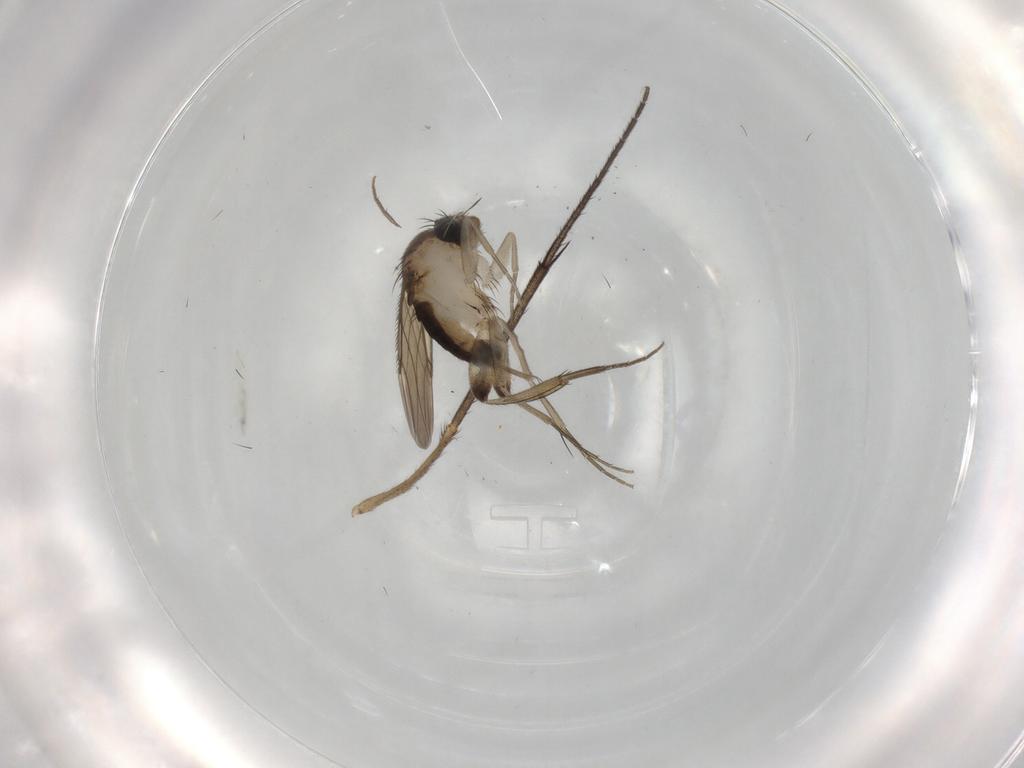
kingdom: Animalia
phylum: Arthropoda
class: Insecta
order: Diptera
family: Phoridae
